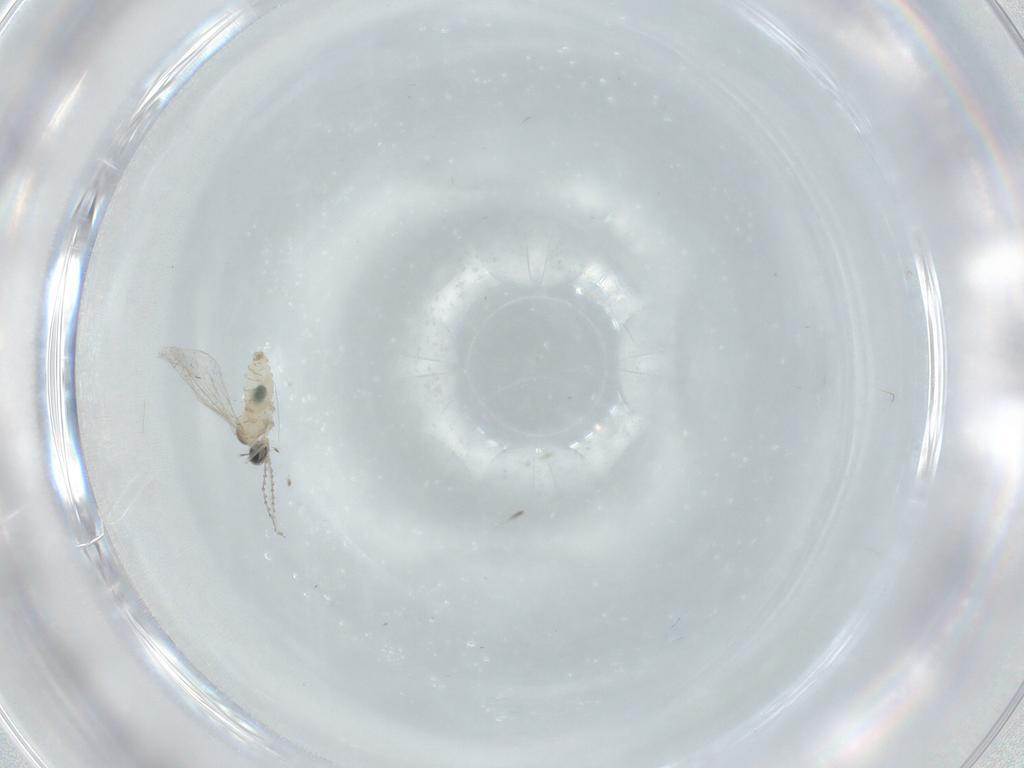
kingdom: Animalia
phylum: Arthropoda
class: Insecta
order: Diptera
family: Cecidomyiidae
